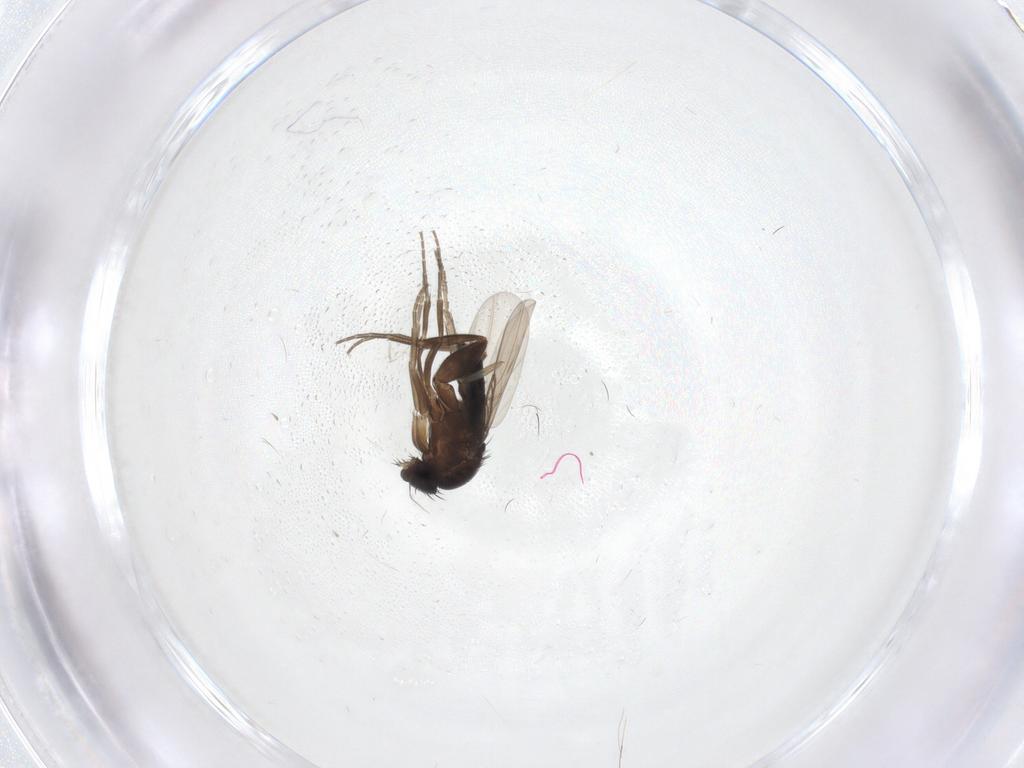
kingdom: Animalia
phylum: Arthropoda
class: Insecta
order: Diptera
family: Phoridae
